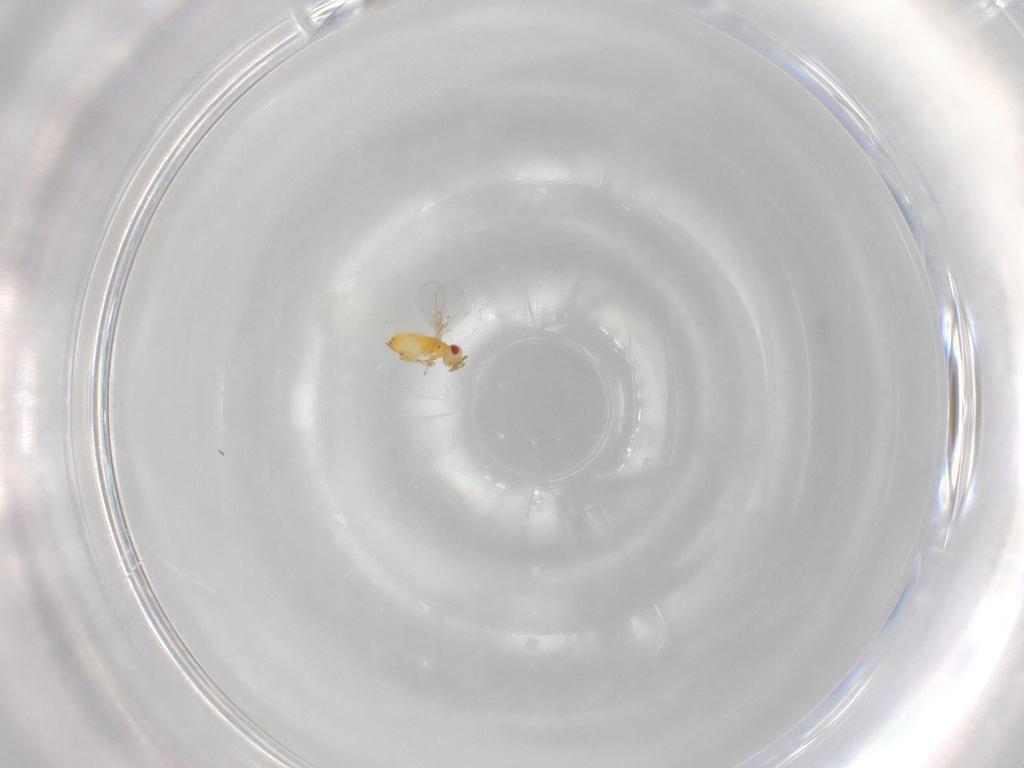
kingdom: Animalia
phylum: Arthropoda
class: Insecta
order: Hymenoptera
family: Trichogrammatidae
